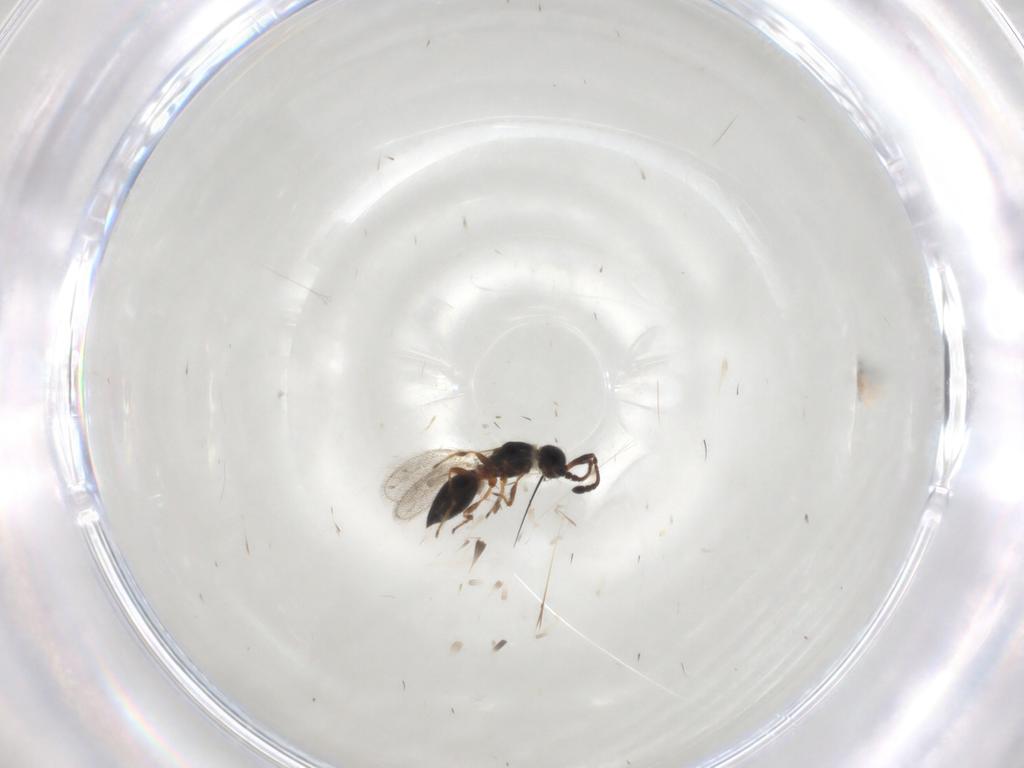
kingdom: Animalia
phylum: Arthropoda
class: Insecta
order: Hymenoptera
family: Diapriidae
